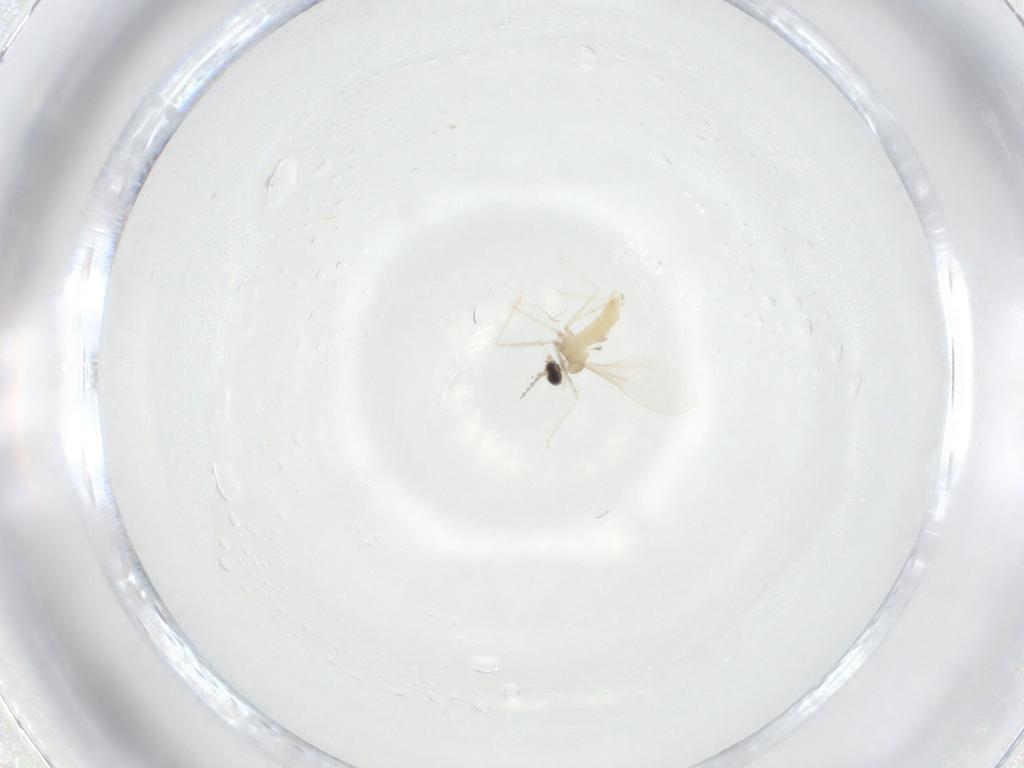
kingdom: Animalia
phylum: Arthropoda
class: Insecta
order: Diptera
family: Cecidomyiidae
